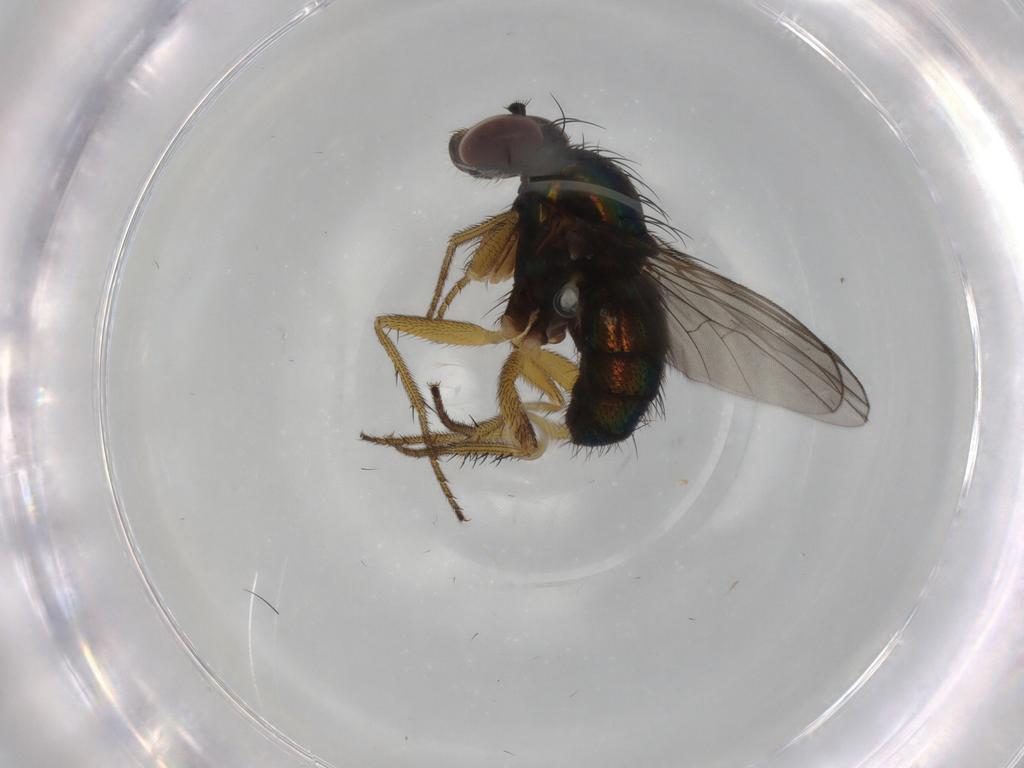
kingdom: Animalia
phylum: Arthropoda
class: Insecta
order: Diptera
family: Dolichopodidae
